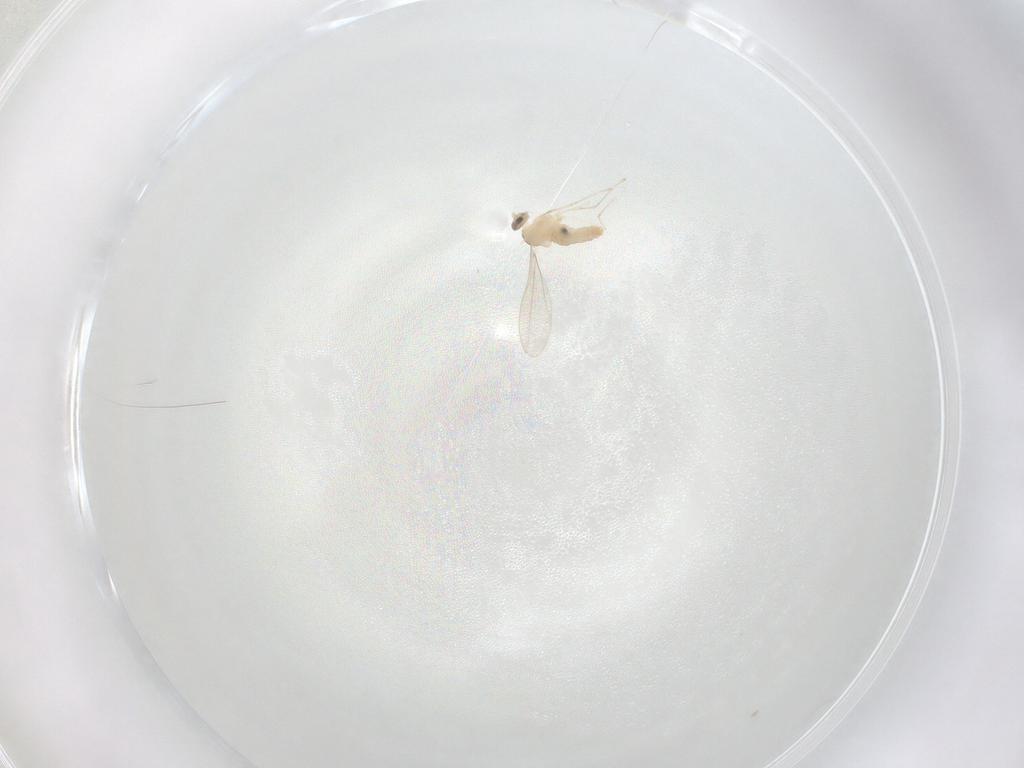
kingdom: Animalia
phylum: Arthropoda
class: Insecta
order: Diptera
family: Cecidomyiidae
